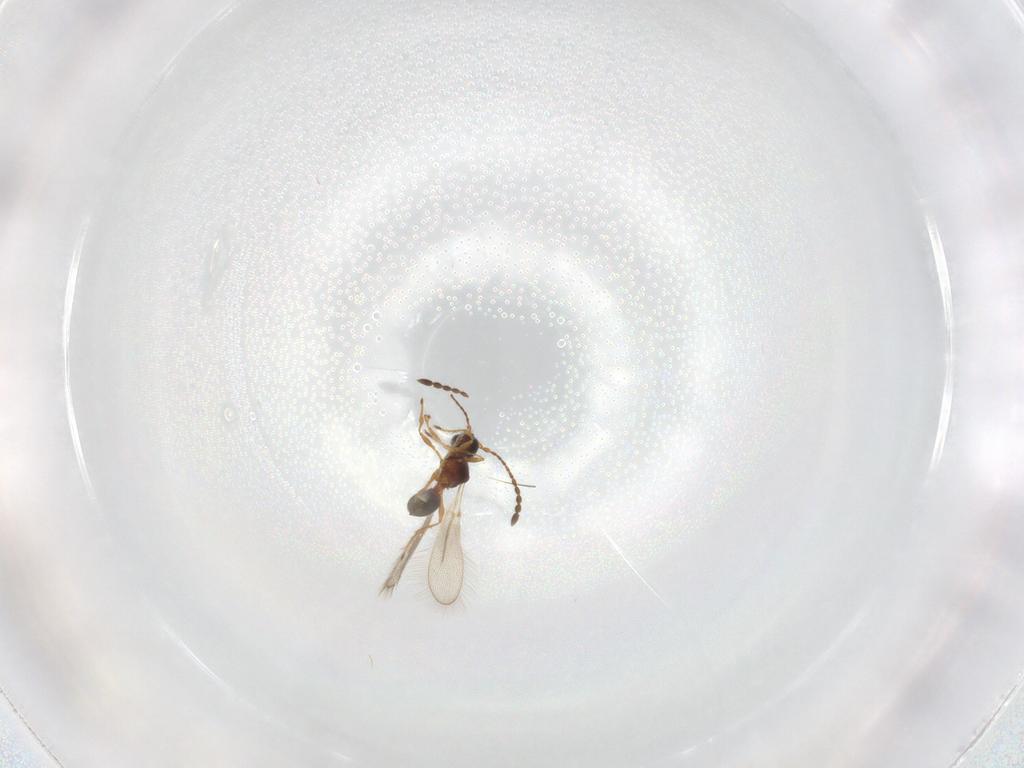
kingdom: Animalia
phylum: Arthropoda
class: Insecta
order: Hymenoptera
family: Diapriidae
